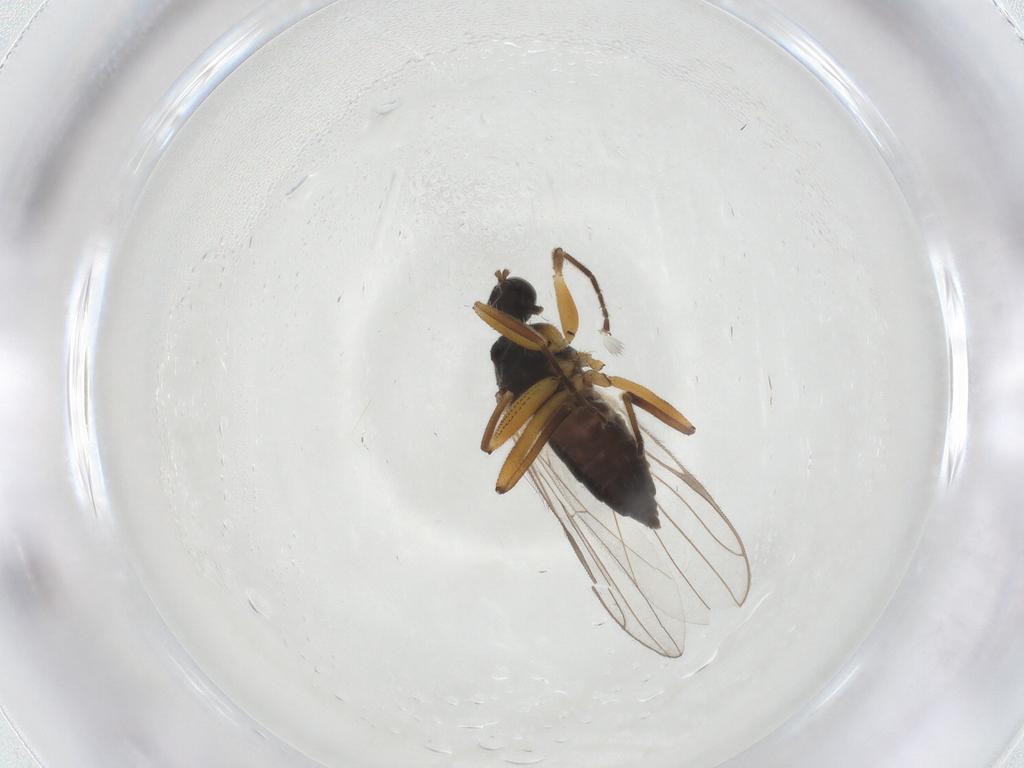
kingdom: Animalia
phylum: Arthropoda
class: Insecta
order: Diptera
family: Hybotidae
